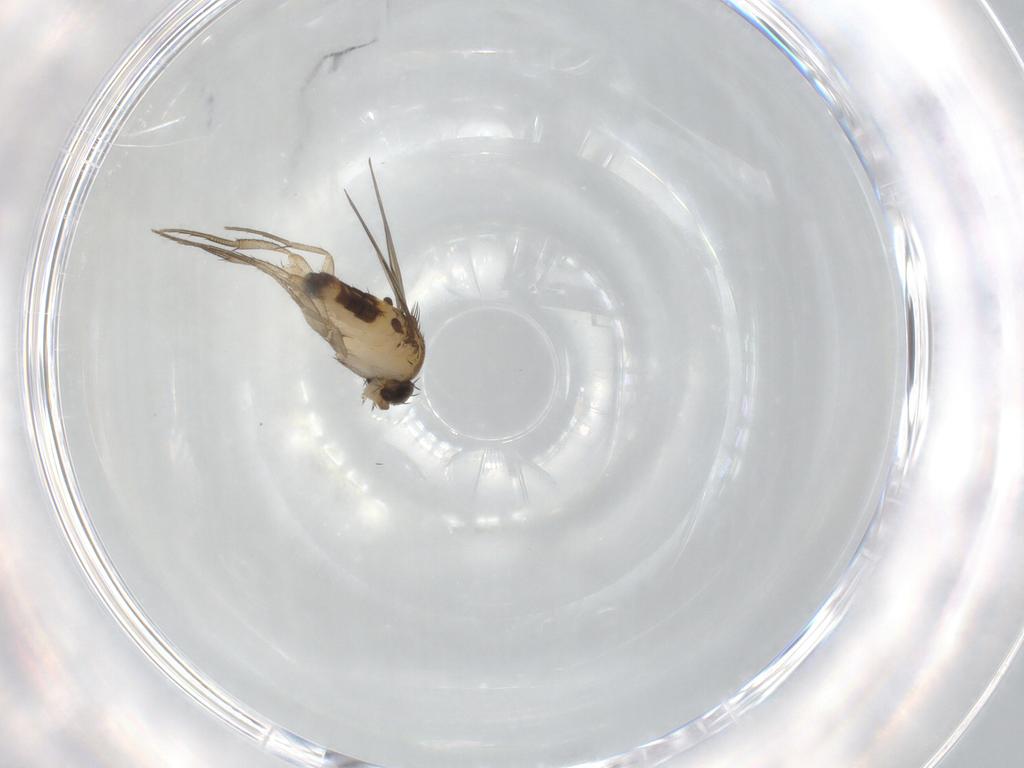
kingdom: Animalia
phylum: Arthropoda
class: Insecta
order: Diptera
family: Phoridae
